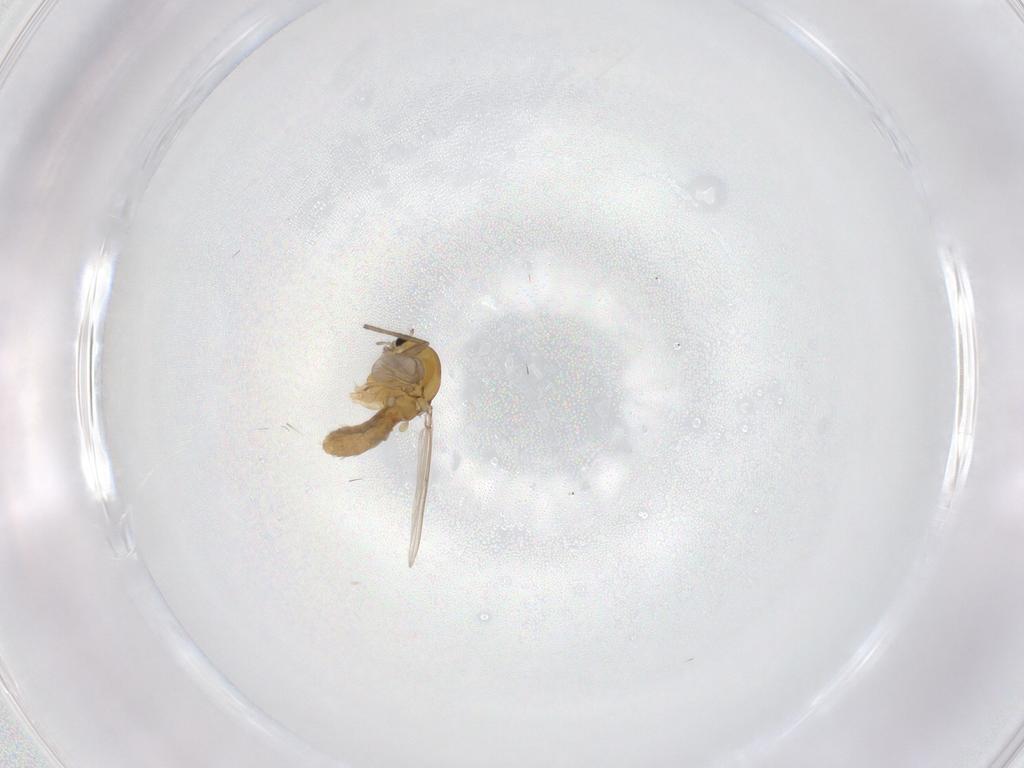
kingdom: Animalia
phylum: Arthropoda
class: Insecta
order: Diptera
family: Chironomidae
